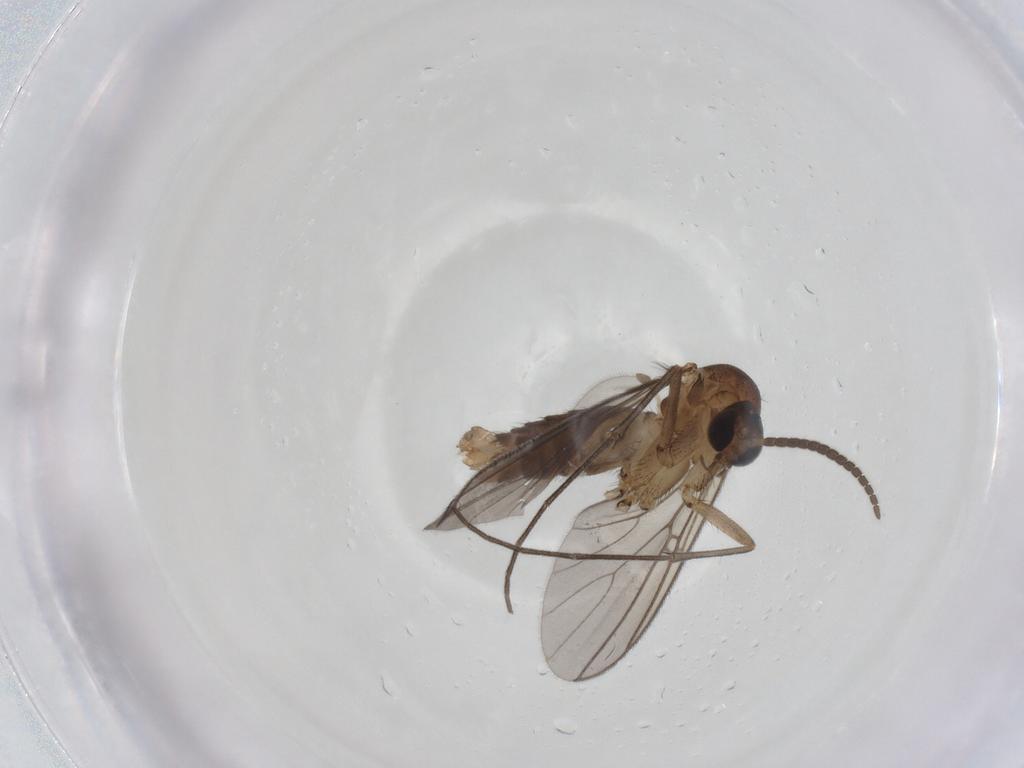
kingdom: Animalia
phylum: Arthropoda
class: Insecta
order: Diptera
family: Mycetophilidae
